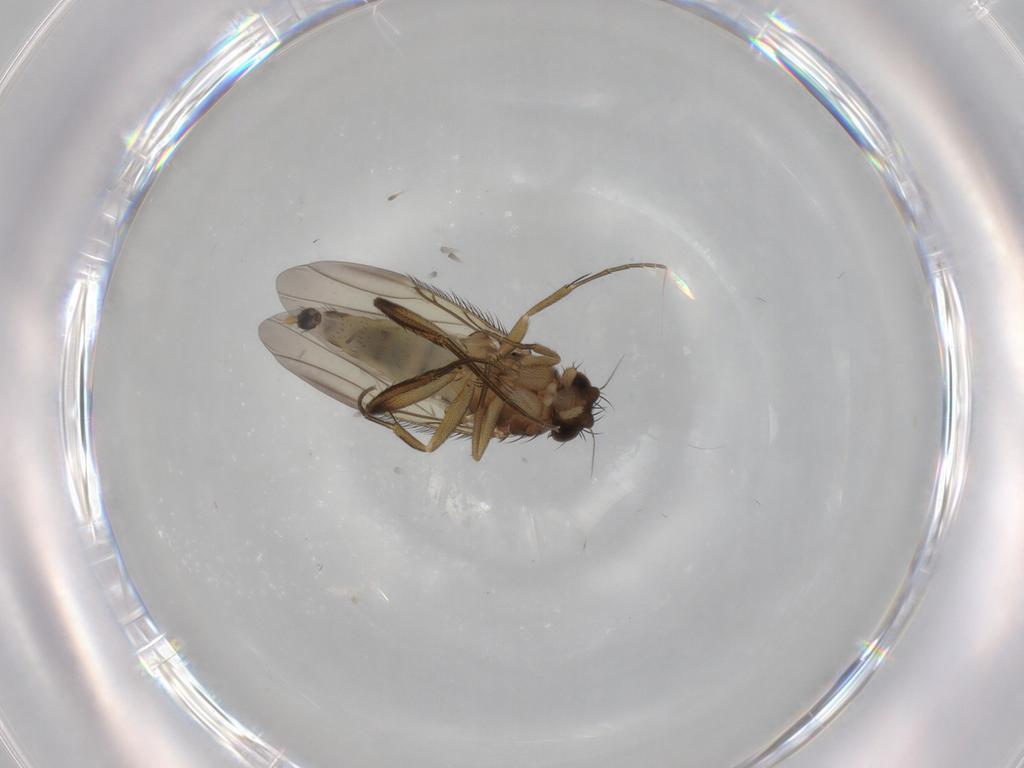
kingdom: Animalia
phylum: Arthropoda
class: Insecta
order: Diptera
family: Phoridae
